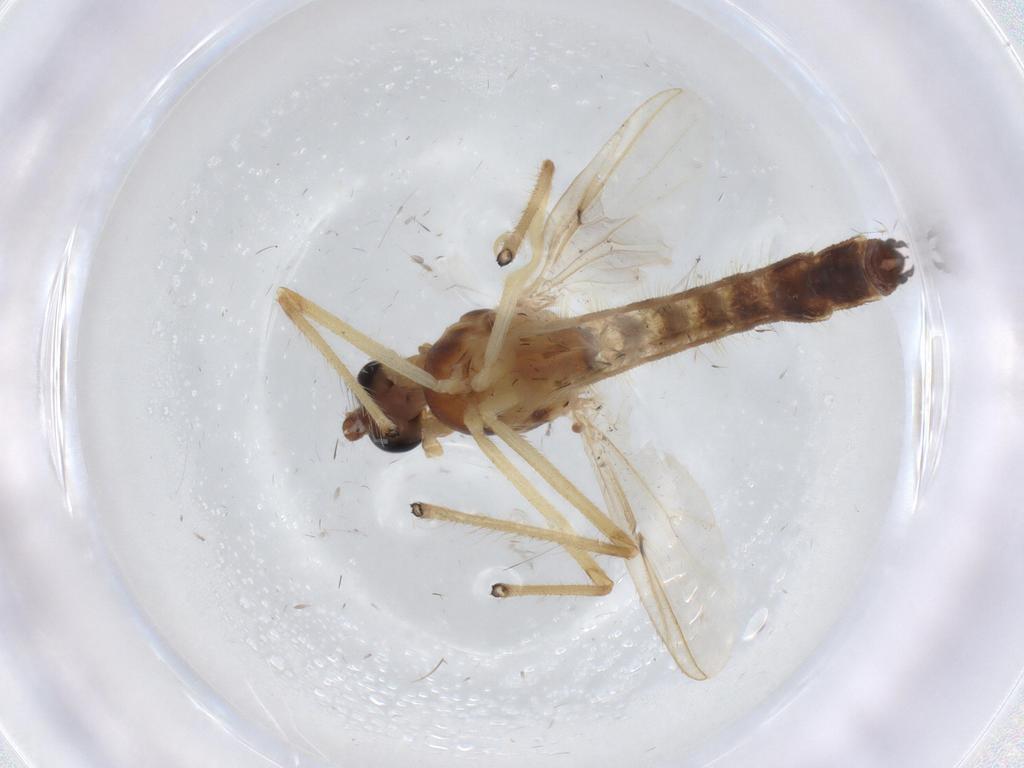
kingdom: Animalia
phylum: Arthropoda
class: Insecta
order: Diptera
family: Chironomidae
